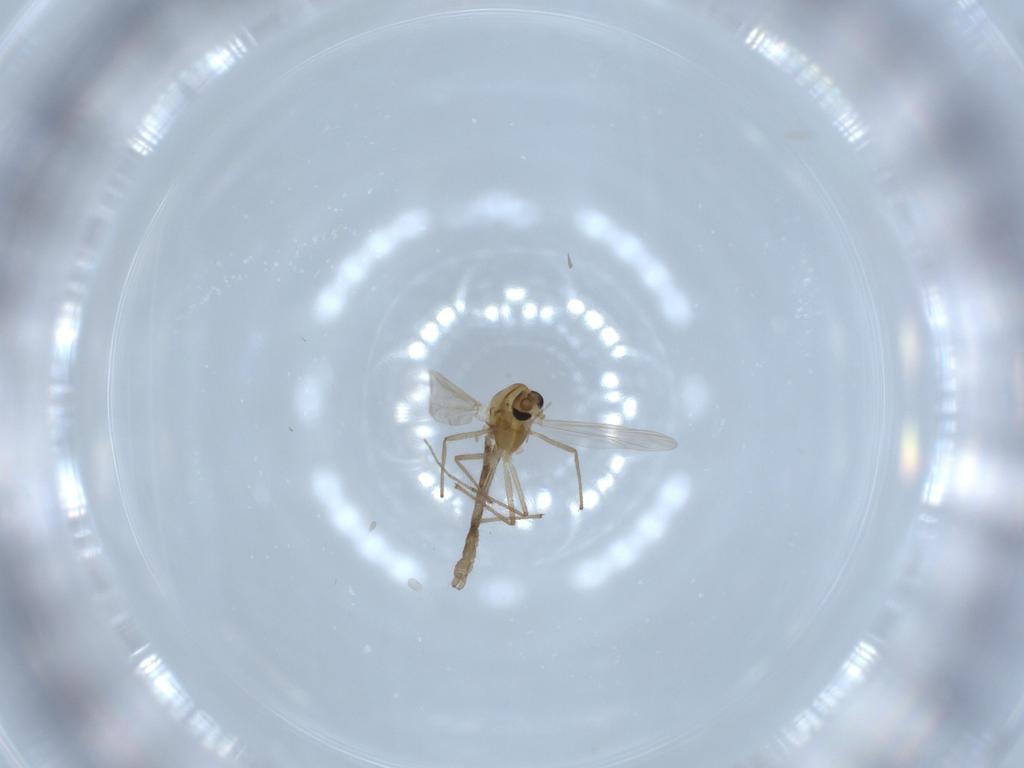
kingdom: Animalia
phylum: Arthropoda
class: Insecta
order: Diptera
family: Chironomidae
